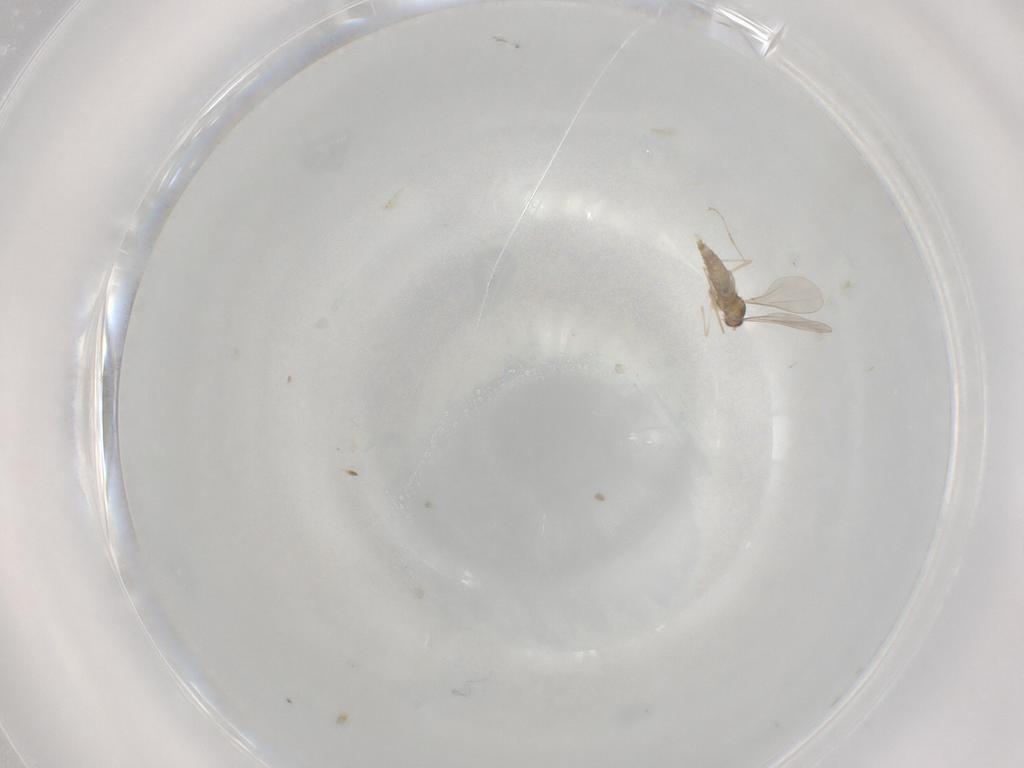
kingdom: Animalia
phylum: Arthropoda
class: Insecta
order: Diptera
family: Cecidomyiidae
